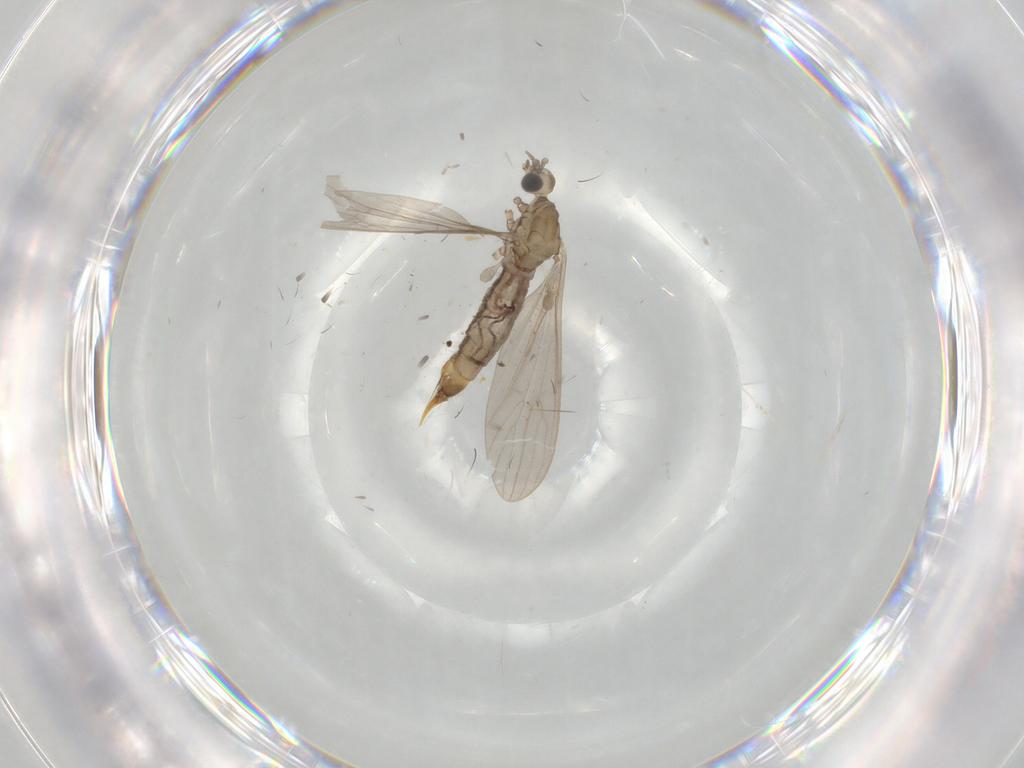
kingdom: Animalia
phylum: Arthropoda
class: Insecta
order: Diptera
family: Limoniidae
